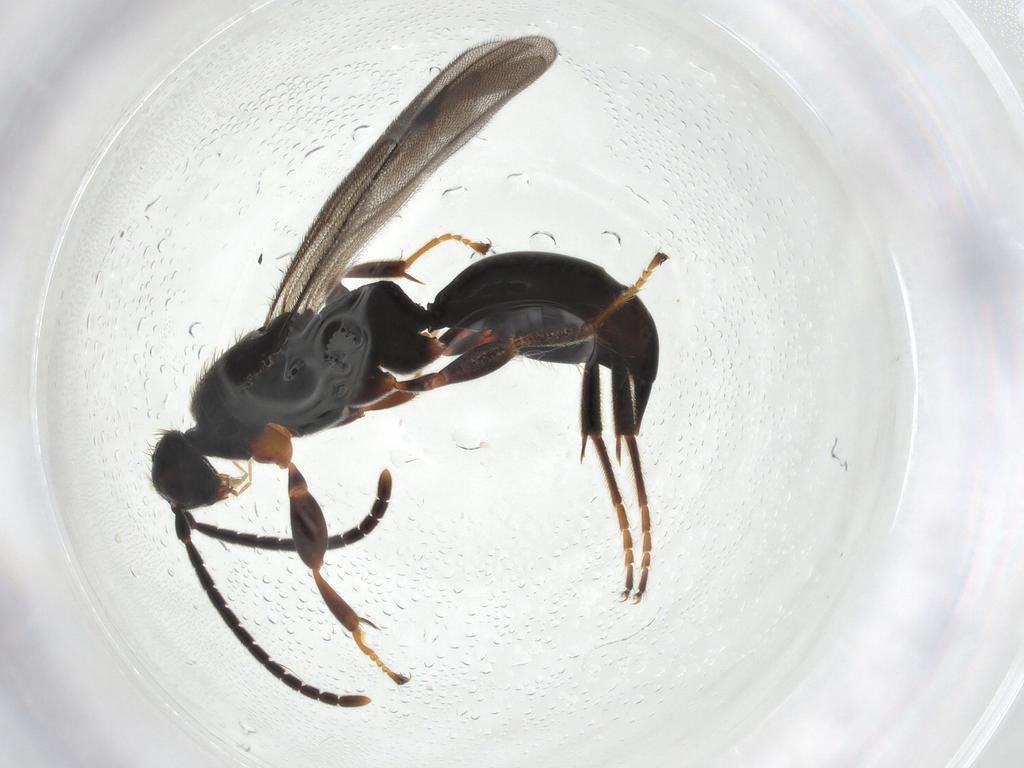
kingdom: Animalia
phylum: Arthropoda
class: Insecta
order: Hymenoptera
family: Proctotrupidae
